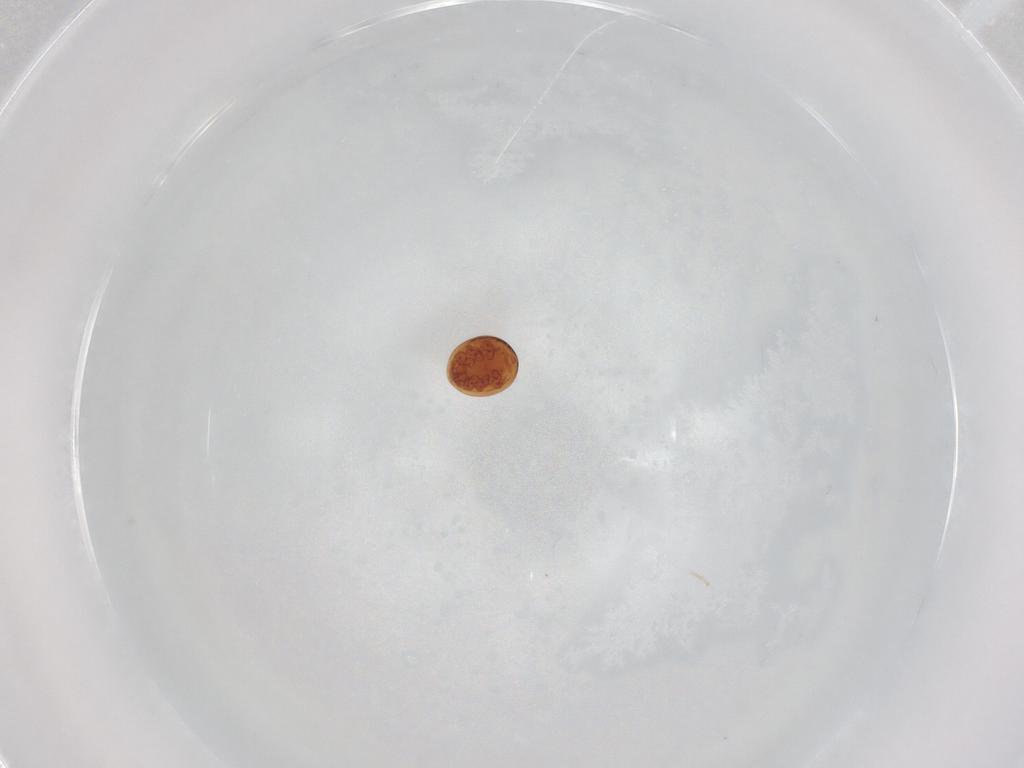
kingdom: Animalia
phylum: Arthropoda
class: Arachnida
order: Mesostigmata
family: Uropodidae
